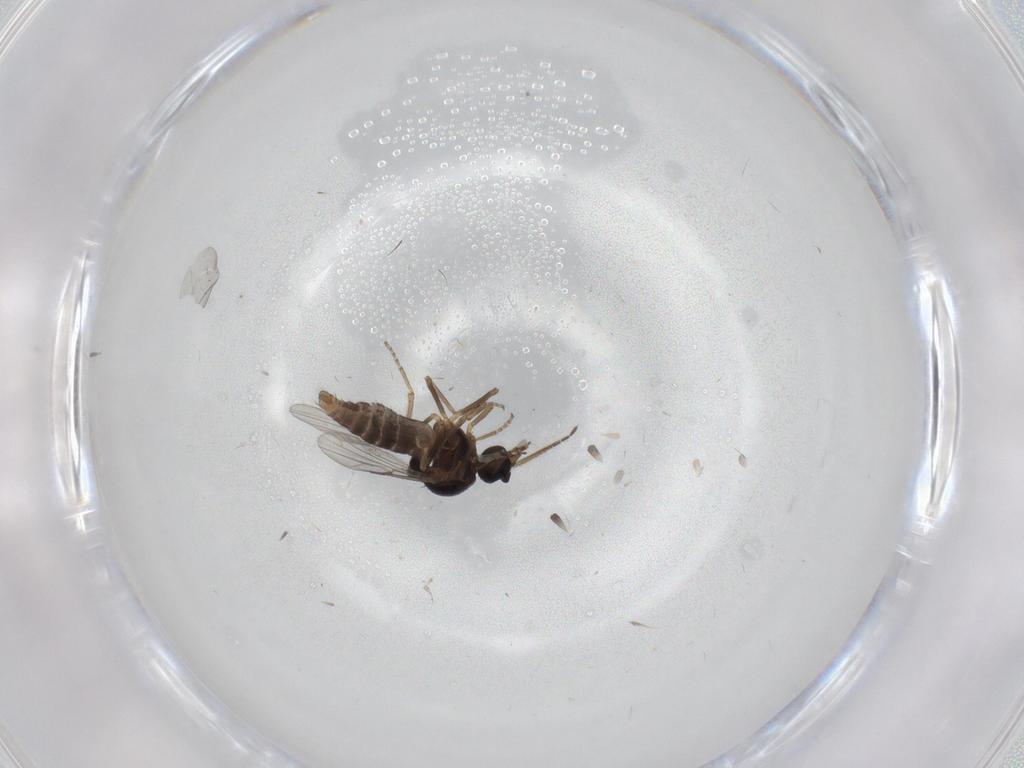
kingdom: Animalia
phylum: Arthropoda
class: Insecta
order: Diptera
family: Ceratopogonidae
